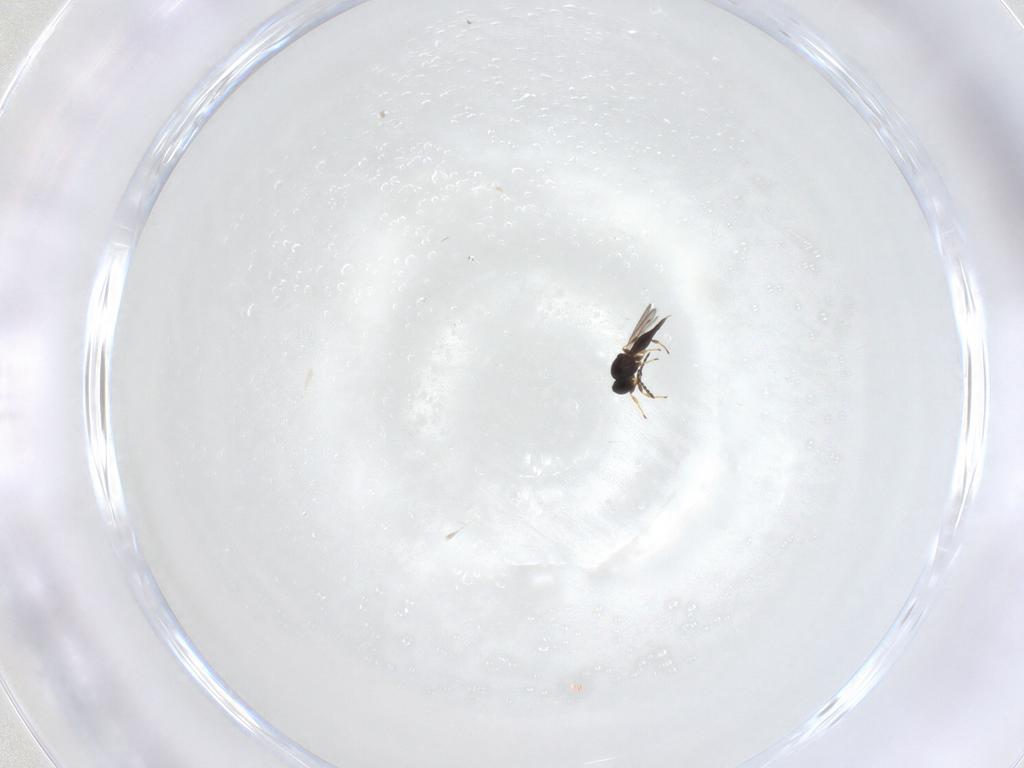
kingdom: Animalia
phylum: Arthropoda
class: Insecta
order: Hymenoptera
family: Platygastridae
